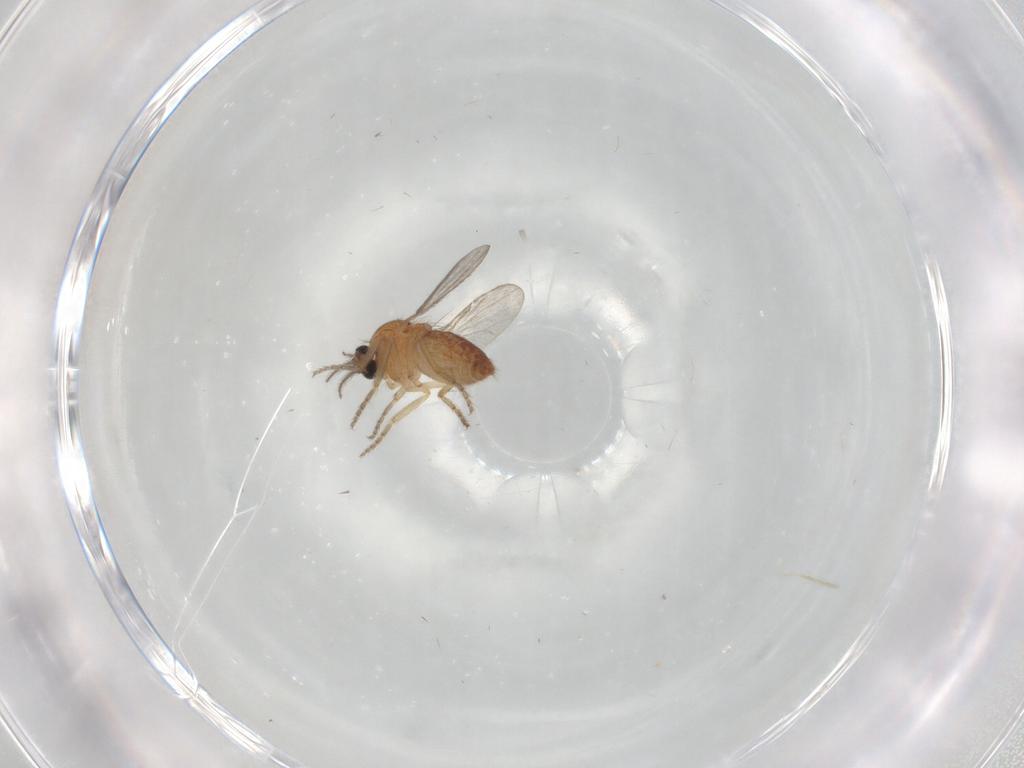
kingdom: Animalia
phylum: Arthropoda
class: Insecta
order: Diptera
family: Ceratopogonidae
